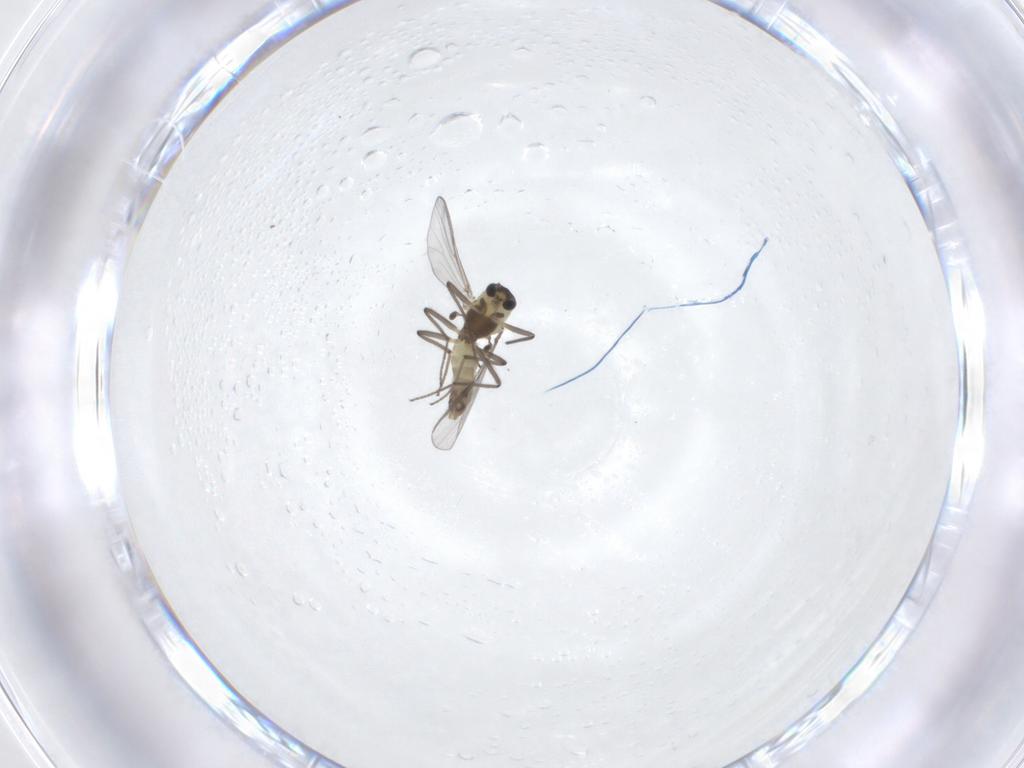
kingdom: Animalia
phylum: Arthropoda
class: Insecta
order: Diptera
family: Chironomidae
